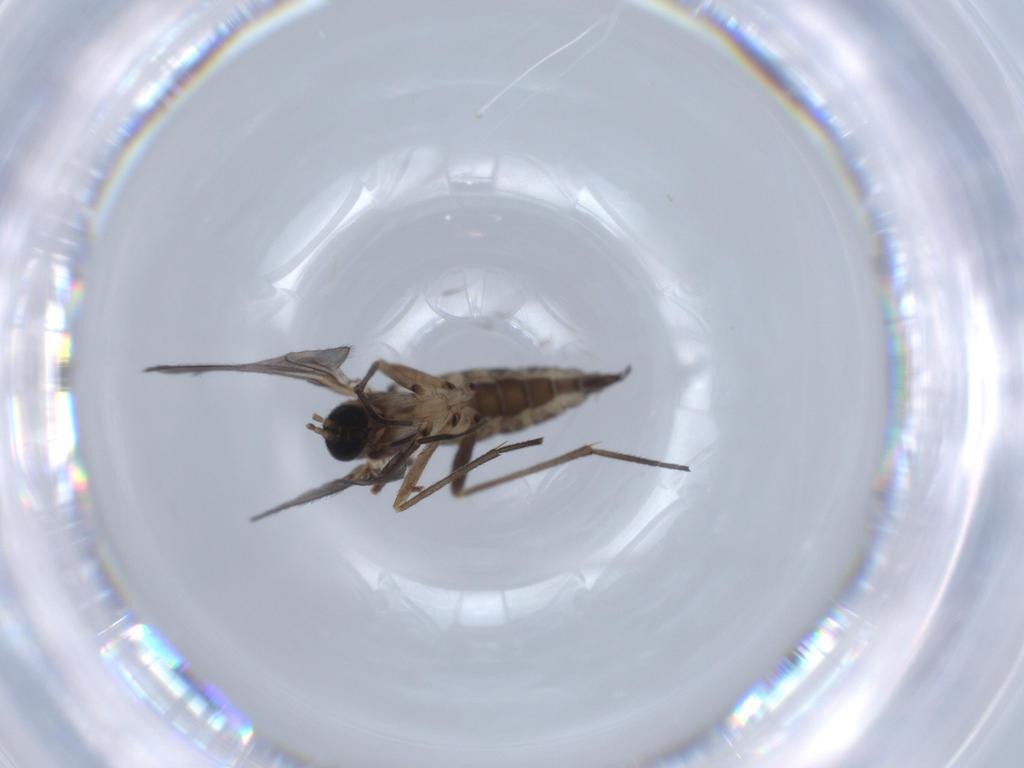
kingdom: Animalia
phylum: Arthropoda
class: Insecta
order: Diptera
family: Sciaridae
